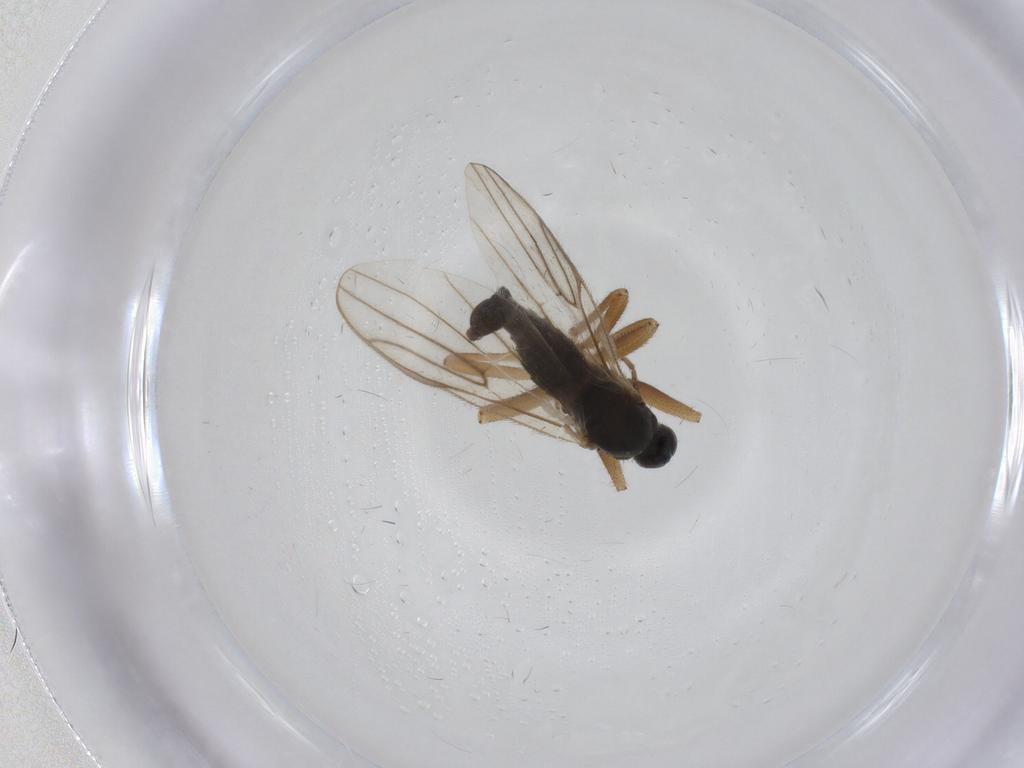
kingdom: Animalia
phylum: Arthropoda
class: Insecta
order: Diptera
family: Hybotidae
